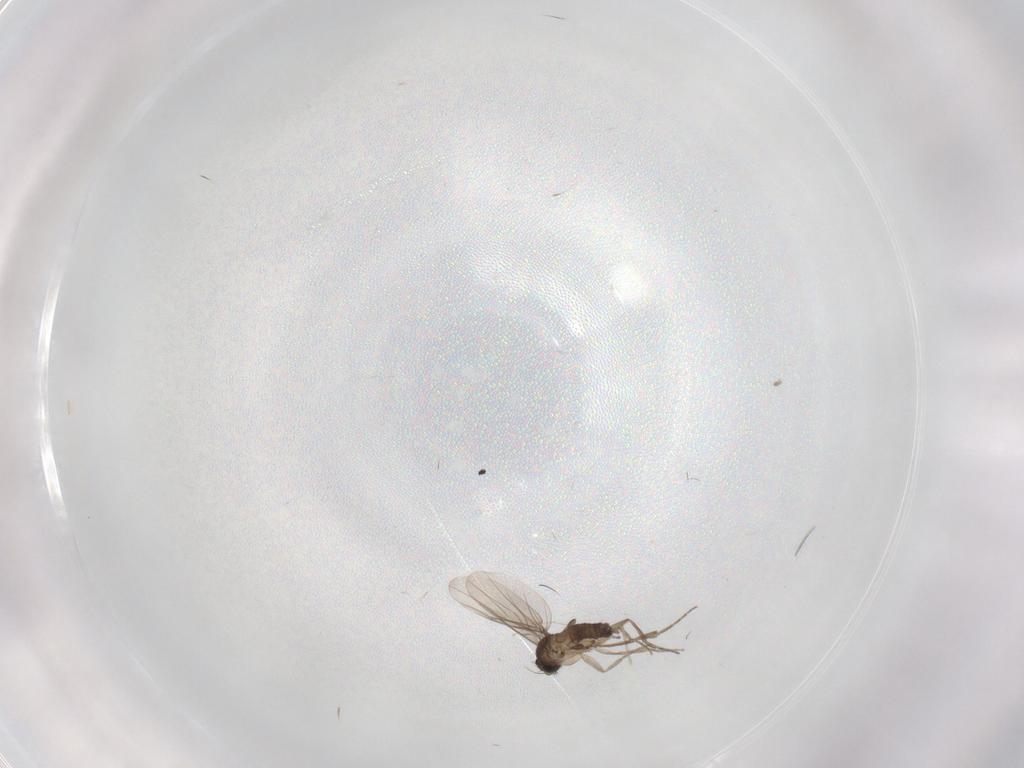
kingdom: Animalia
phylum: Arthropoda
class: Insecta
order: Diptera
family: Phoridae
